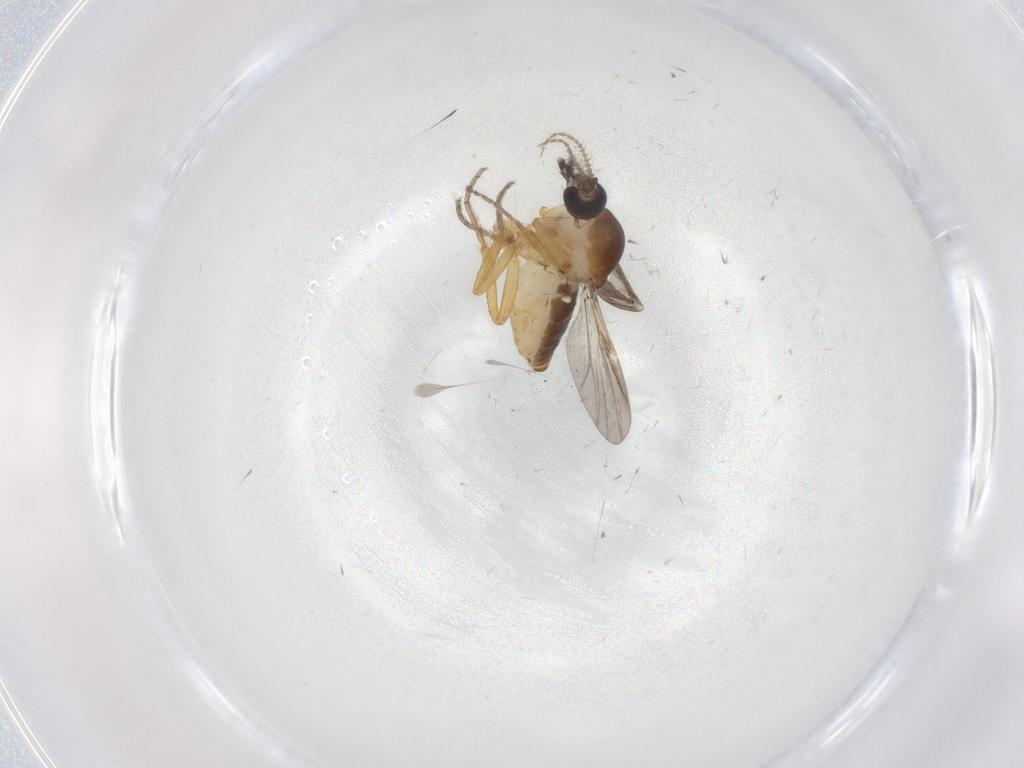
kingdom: Animalia
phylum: Arthropoda
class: Insecta
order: Diptera
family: Ceratopogonidae
